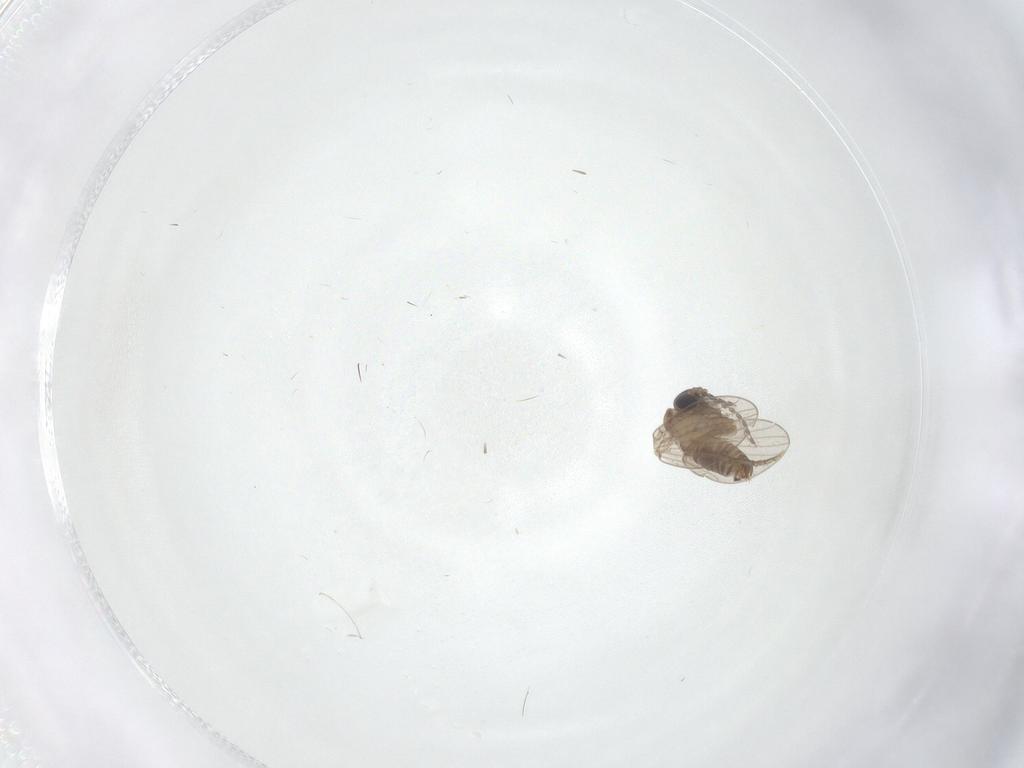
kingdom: Animalia
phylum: Arthropoda
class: Insecta
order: Diptera
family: Psychodidae
